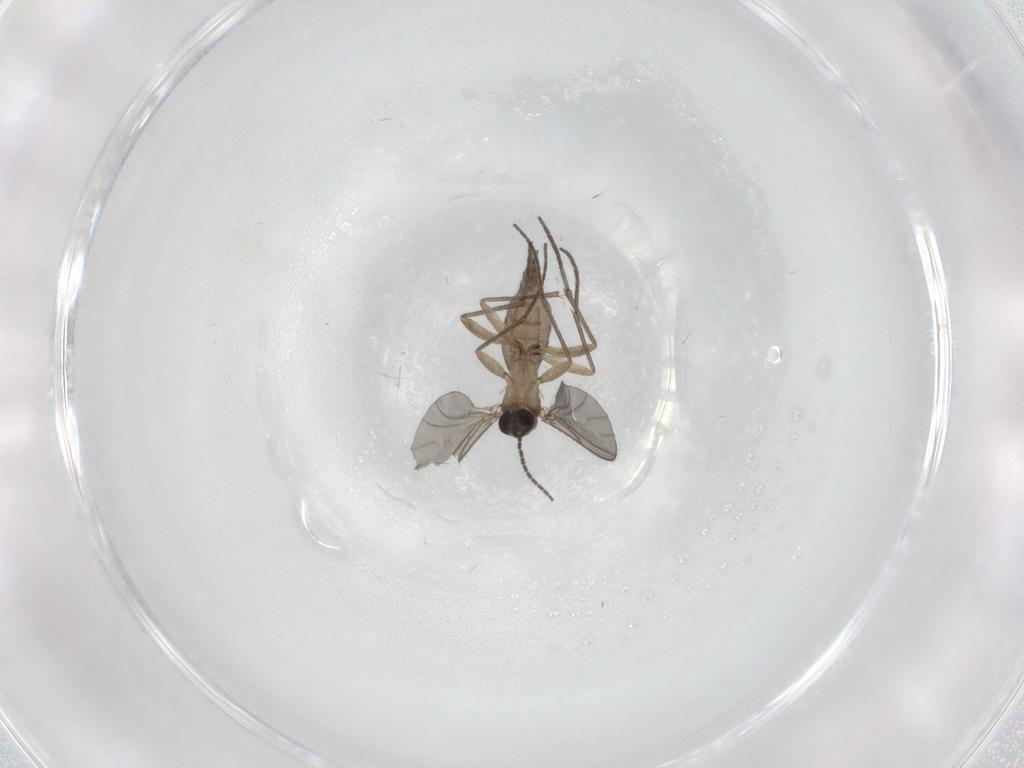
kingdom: Animalia
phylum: Arthropoda
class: Insecta
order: Diptera
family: Sciaridae
